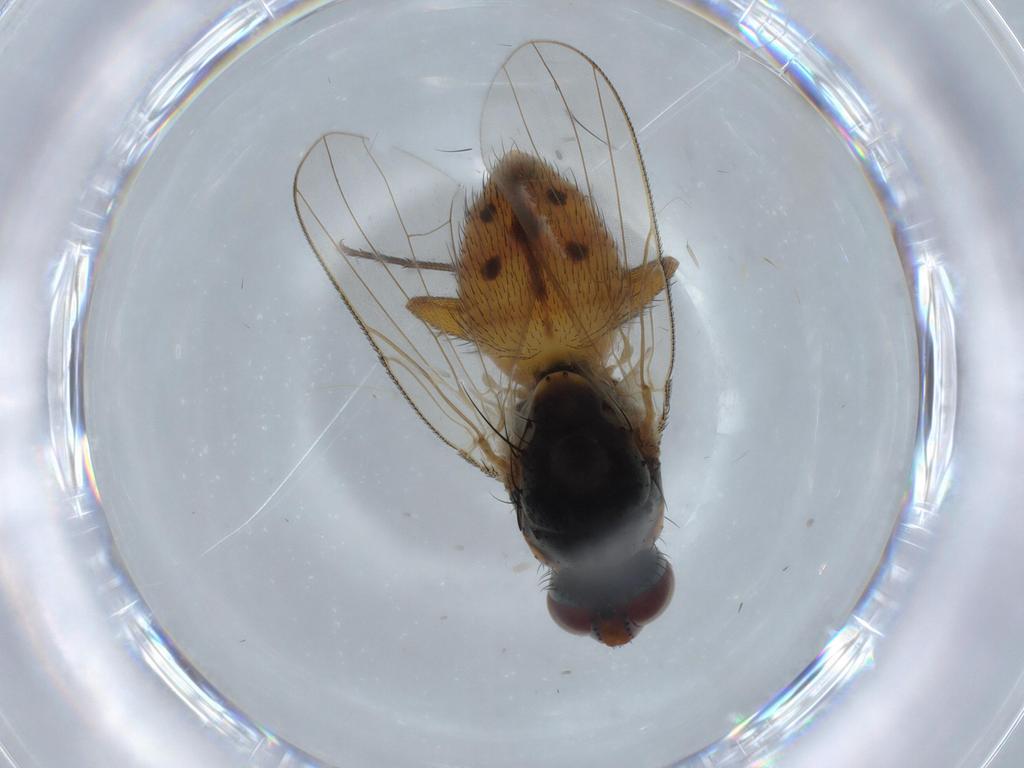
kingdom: Animalia
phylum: Arthropoda
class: Insecta
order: Diptera
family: Muscidae
